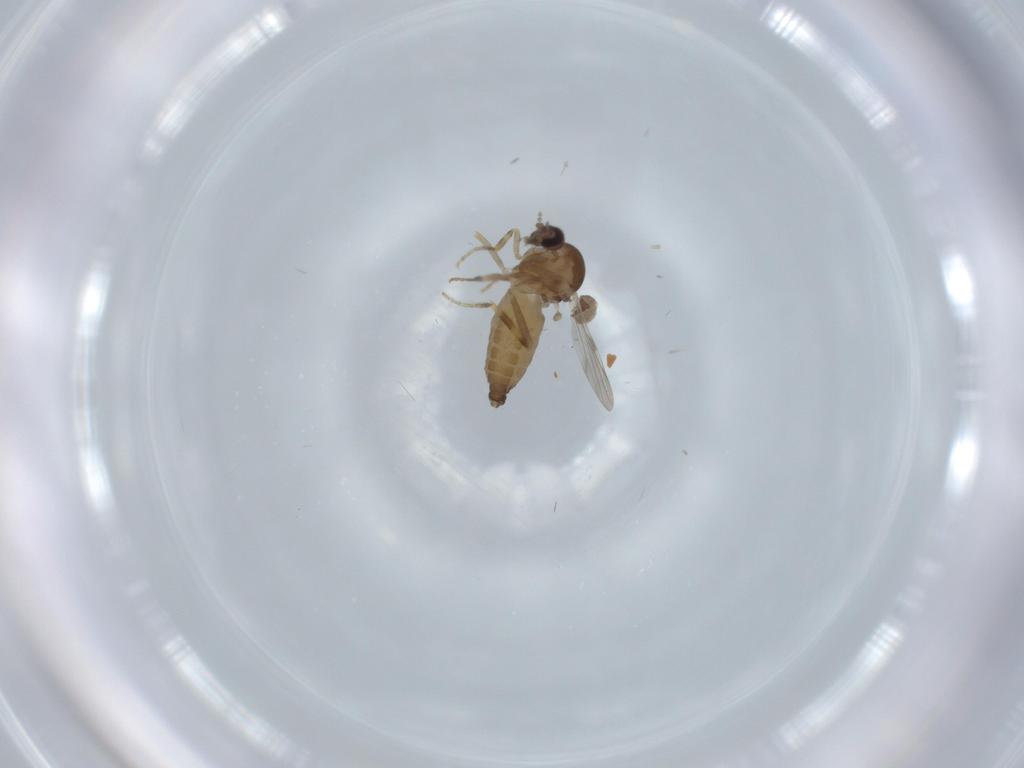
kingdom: Animalia
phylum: Arthropoda
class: Insecta
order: Diptera
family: Ceratopogonidae
